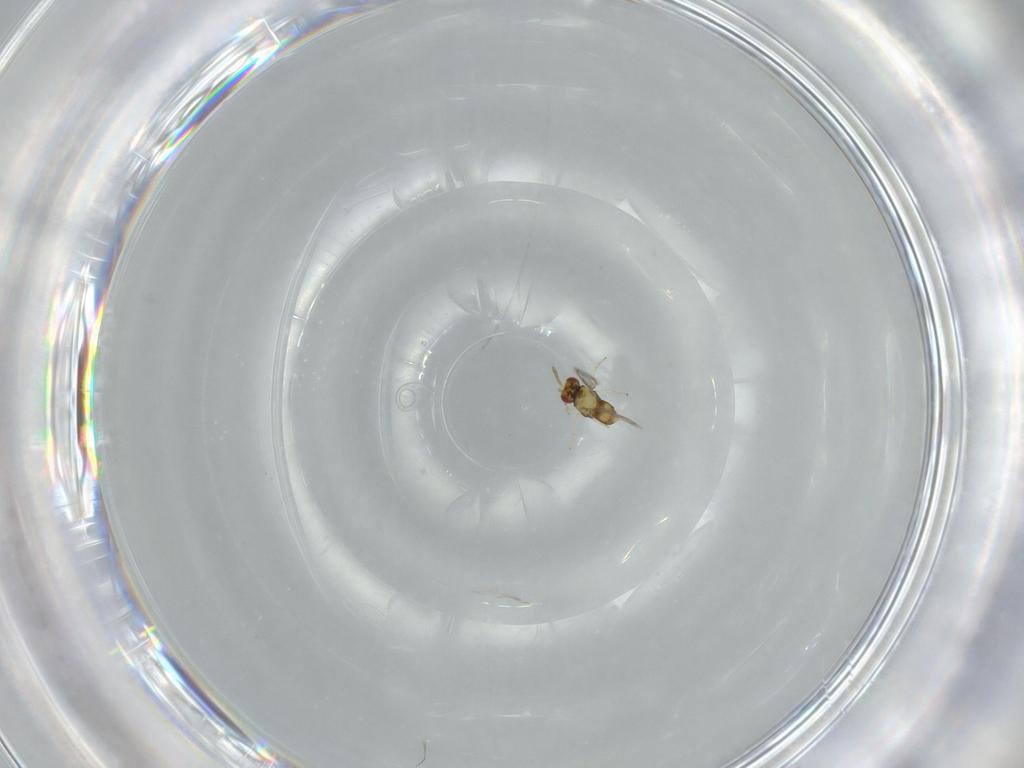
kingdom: Animalia
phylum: Arthropoda
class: Insecta
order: Hymenoptera
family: Aphelinidae
